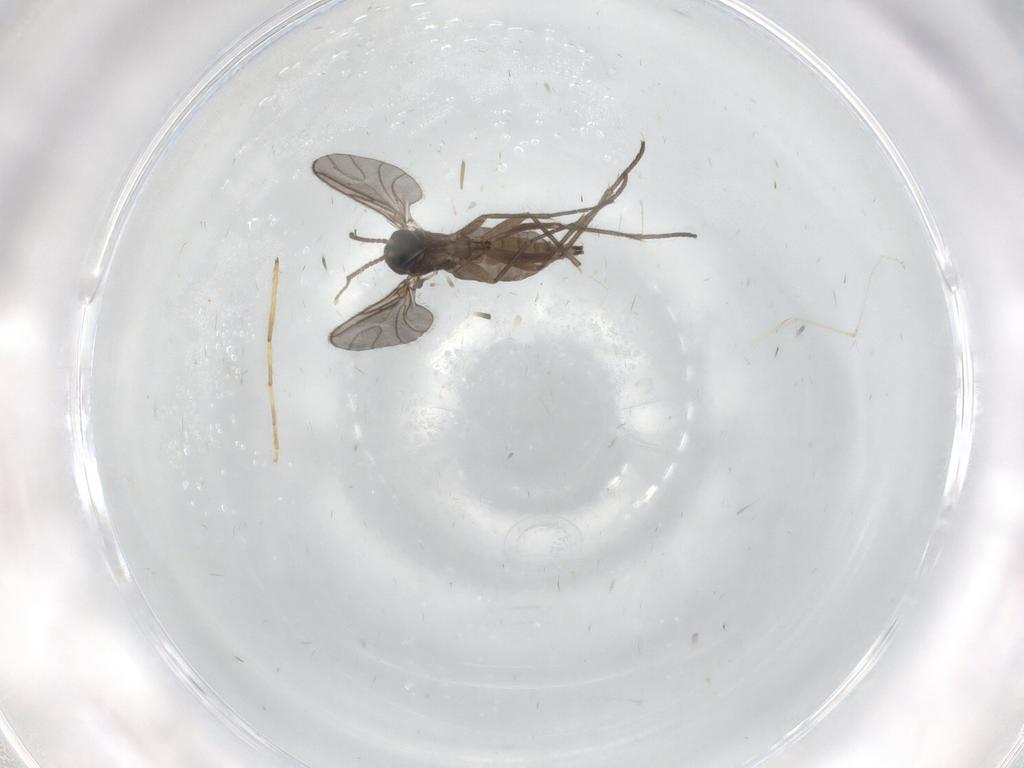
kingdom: Animalia
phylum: Arthropoda
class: Insecta
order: Diptera
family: Sciaridae
